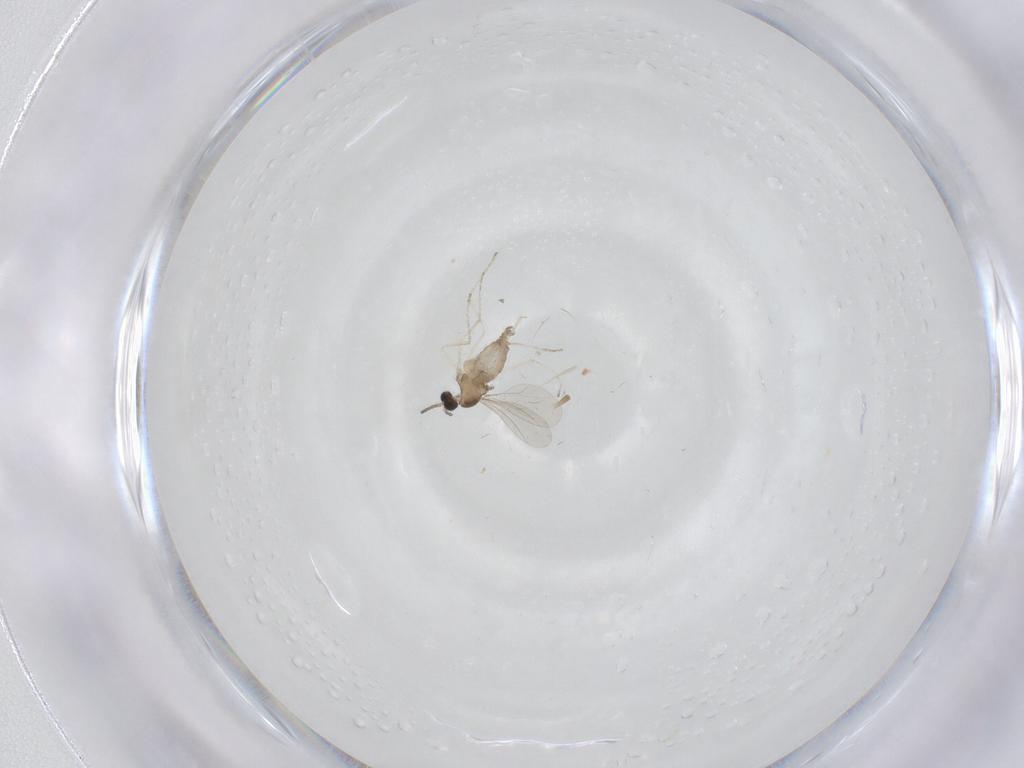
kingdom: Animalia
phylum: Arthropoda
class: Insecta
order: Diptera
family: Cecidomyiidae
